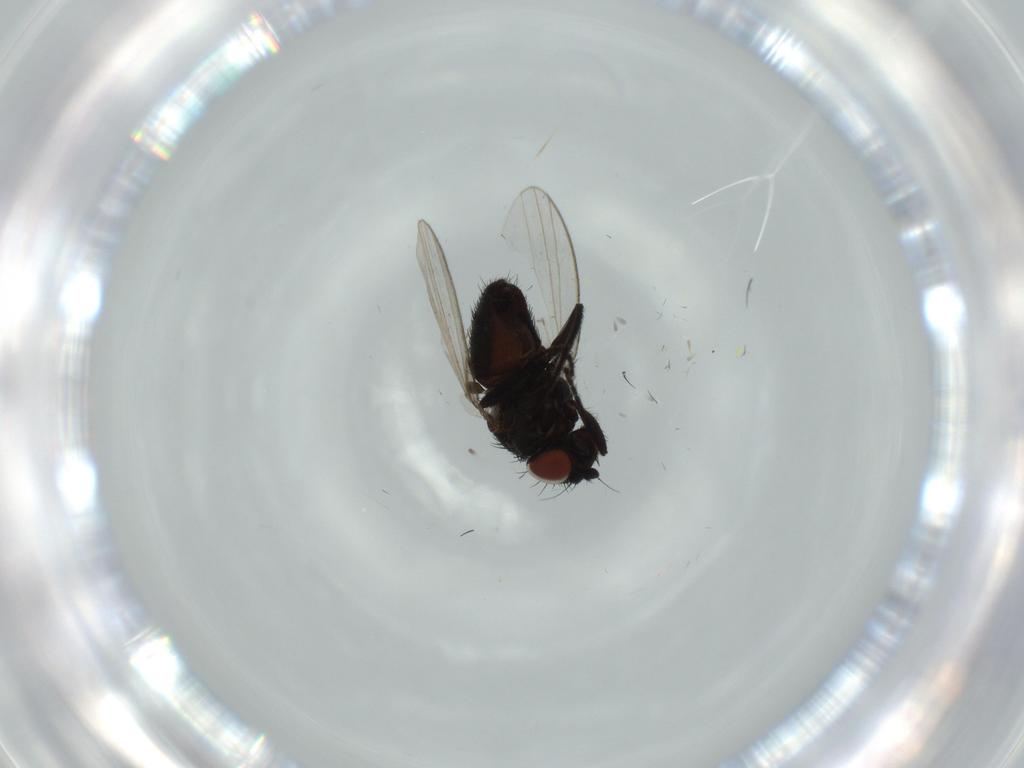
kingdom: Animalia
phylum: Arthropoda
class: Insecta
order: Diptera
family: Milichiidae
